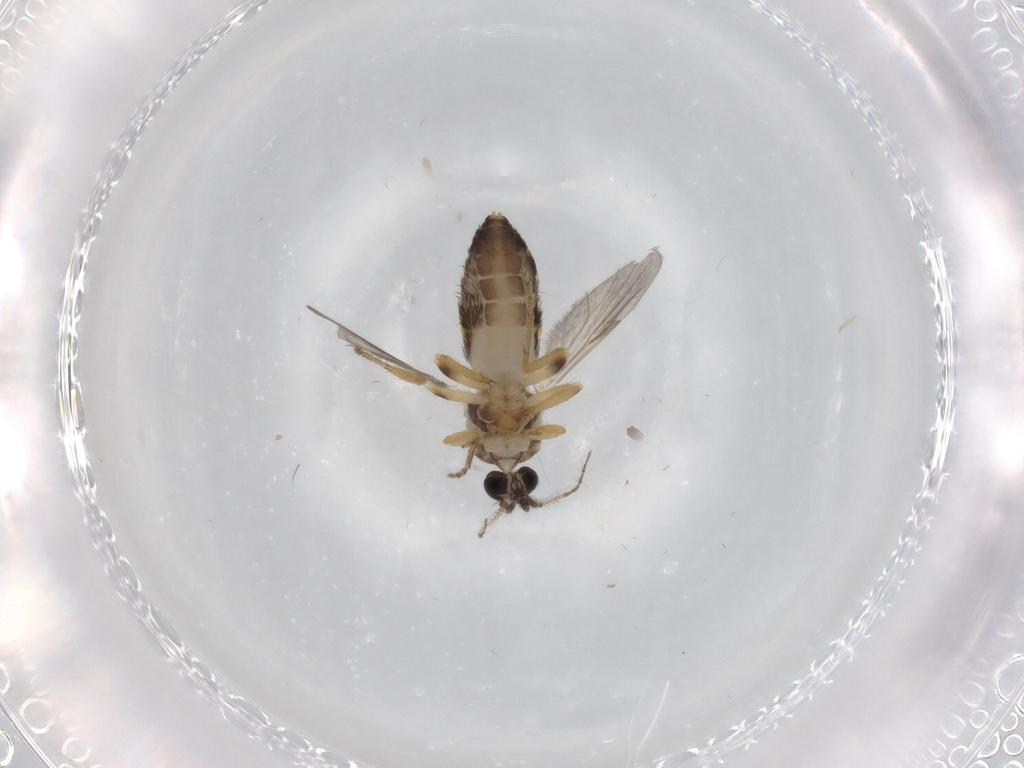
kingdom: Animalia
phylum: Arthropoda
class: Insecta
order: Diptera
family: Ceratopogonidae
